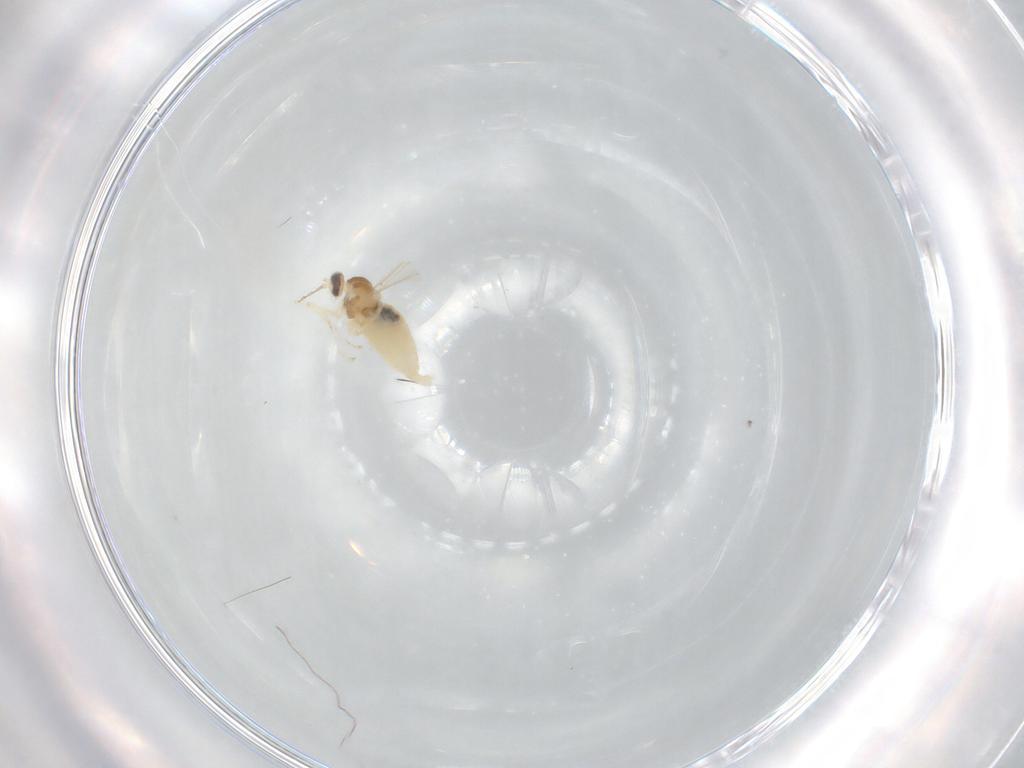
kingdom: Animalia
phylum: Arthropoda
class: Insecta
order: Diptera
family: Cecidomyiidae
